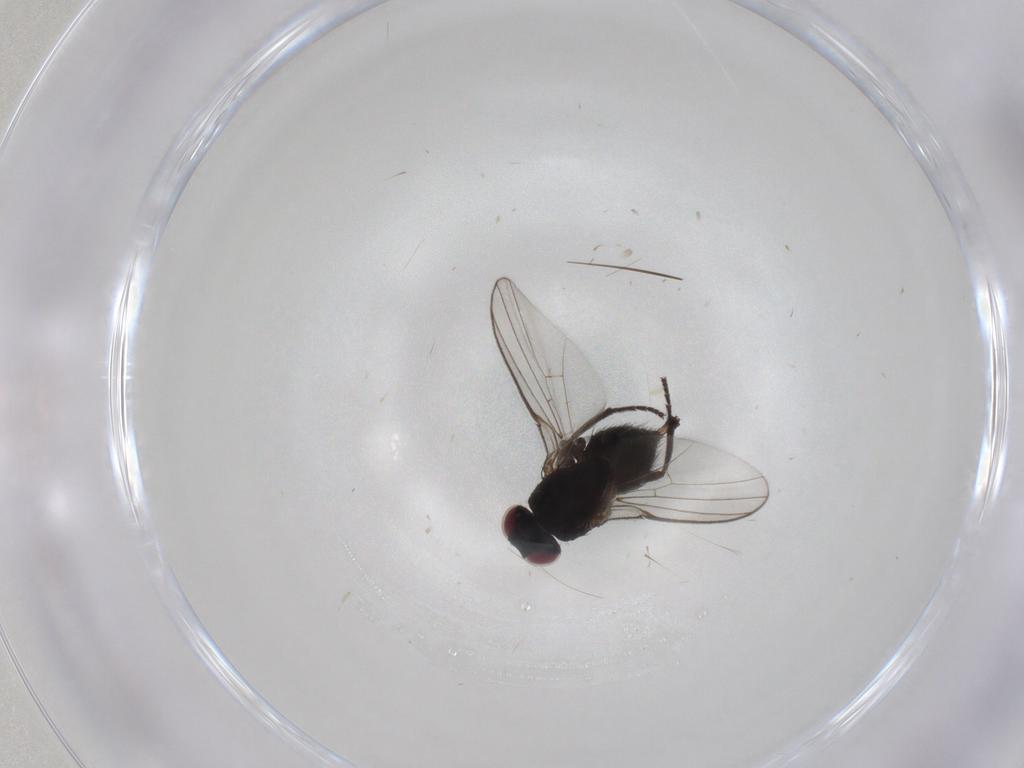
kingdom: Animalia
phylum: Arthropoda
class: Insecta
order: Diptera
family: Agromyzidae
